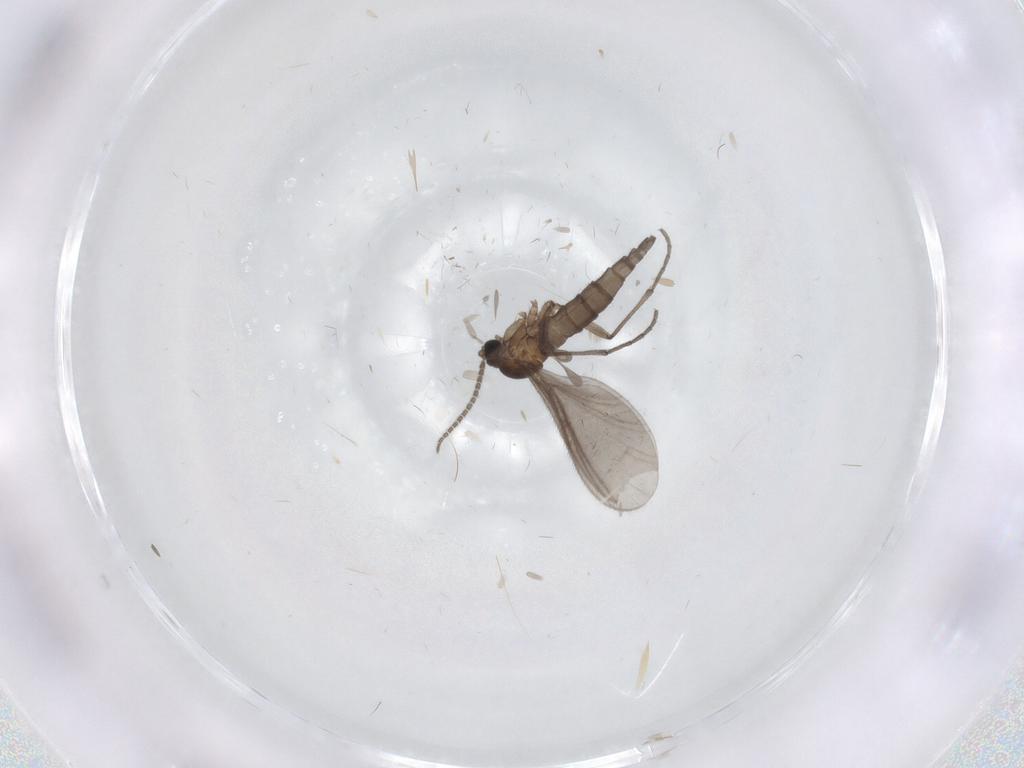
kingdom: Animalia
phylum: Arthropoda
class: Insecta
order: Diptera
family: Sciaridae
